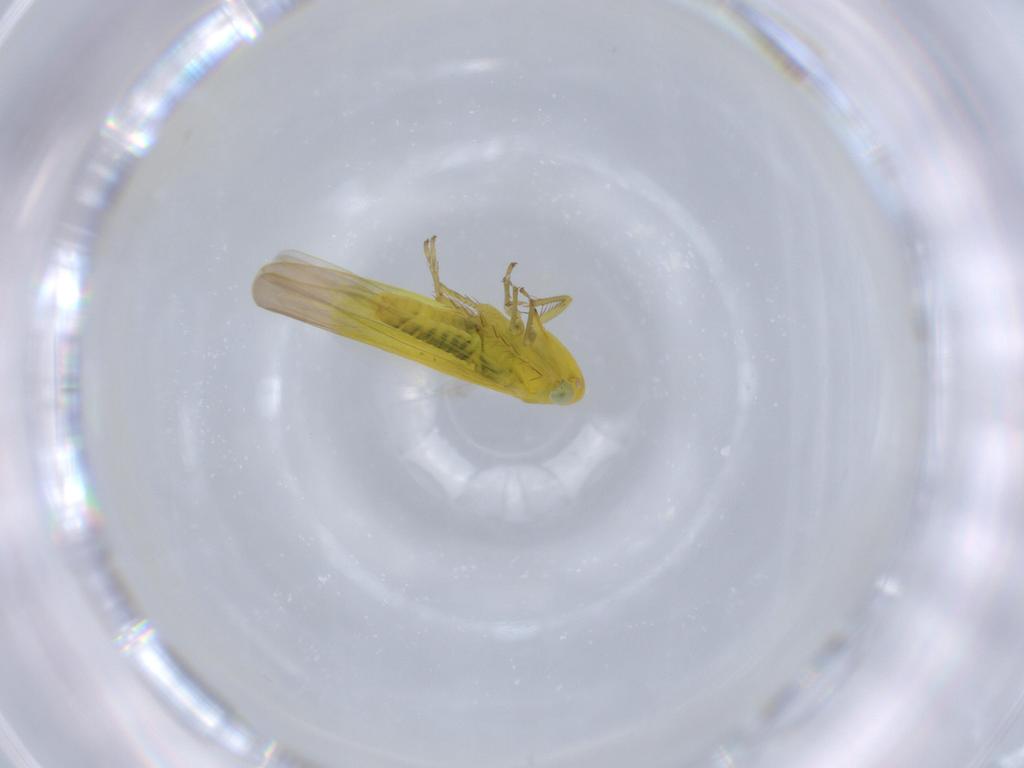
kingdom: Animalia
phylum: Arthropoda
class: Insecta
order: Hemiptera
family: Cicadellidae
